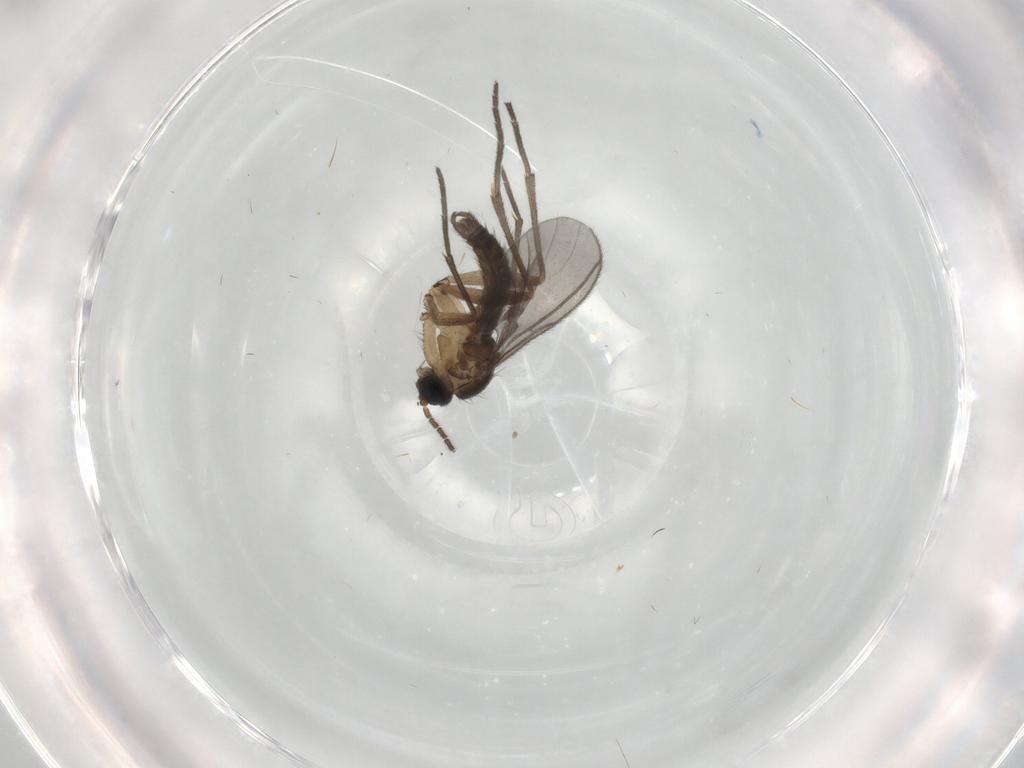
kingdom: Animalia
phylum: Arthropoda
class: Insecta
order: Diptera
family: Sciaridae
